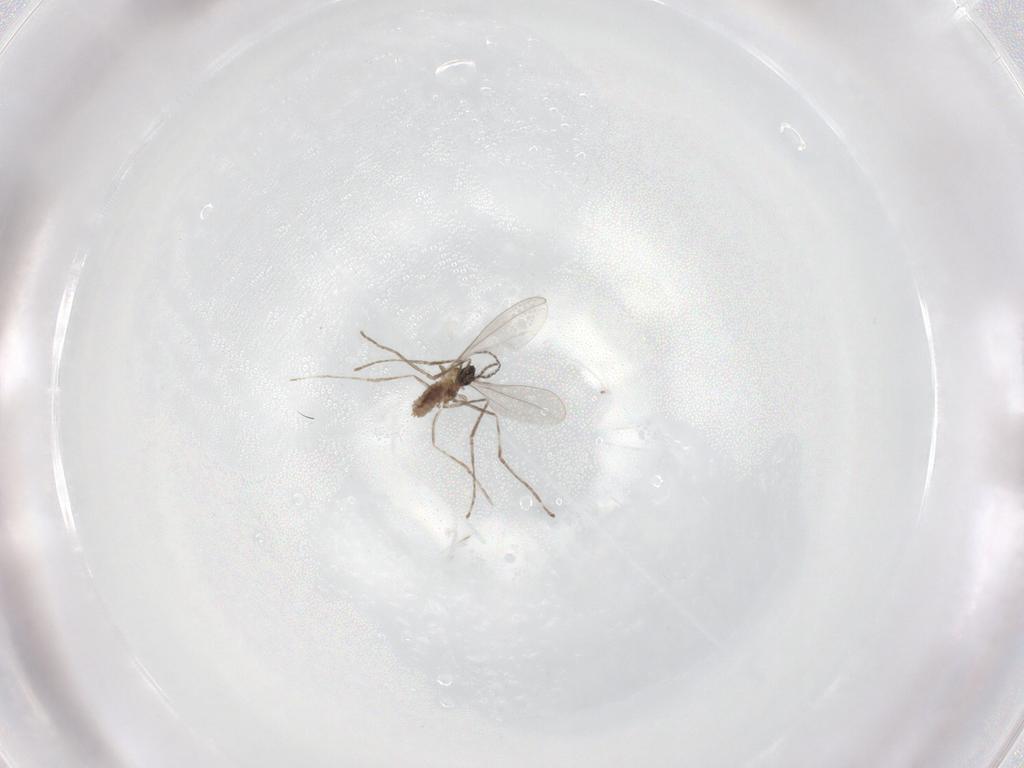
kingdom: Animalia
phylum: Arthropoda
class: Insecta
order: Diptera
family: Cecidomyiidae
